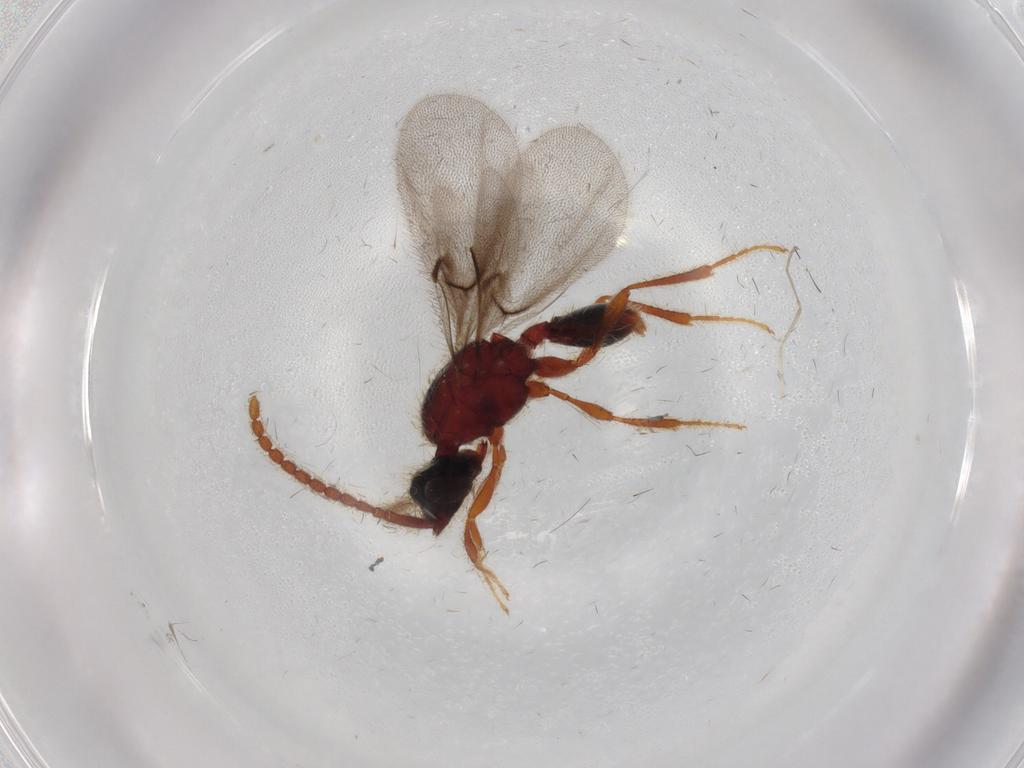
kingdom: Animalia
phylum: Arthropoda
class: Insecta
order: Hymenoptera
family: Diapriidae
